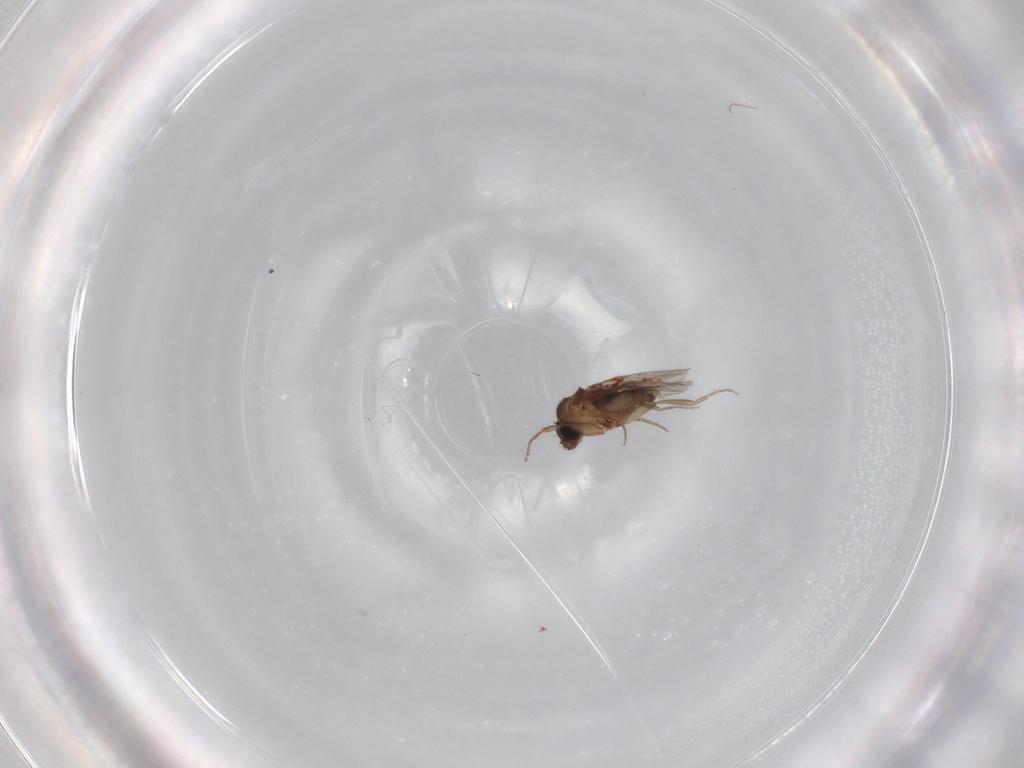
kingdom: Animalia
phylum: Arthropoda
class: Insecta
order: Diptera
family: Phoridae
